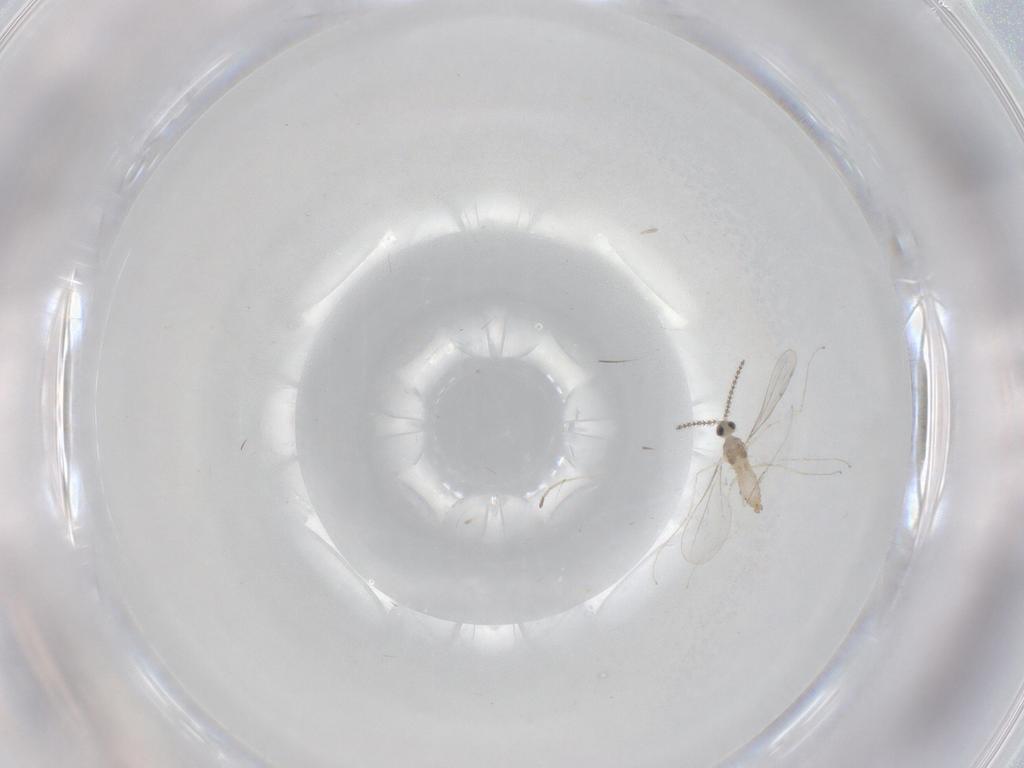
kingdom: Animalia
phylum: Arthropoda
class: Insecta
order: Diptera
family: Cecidomyiidae
